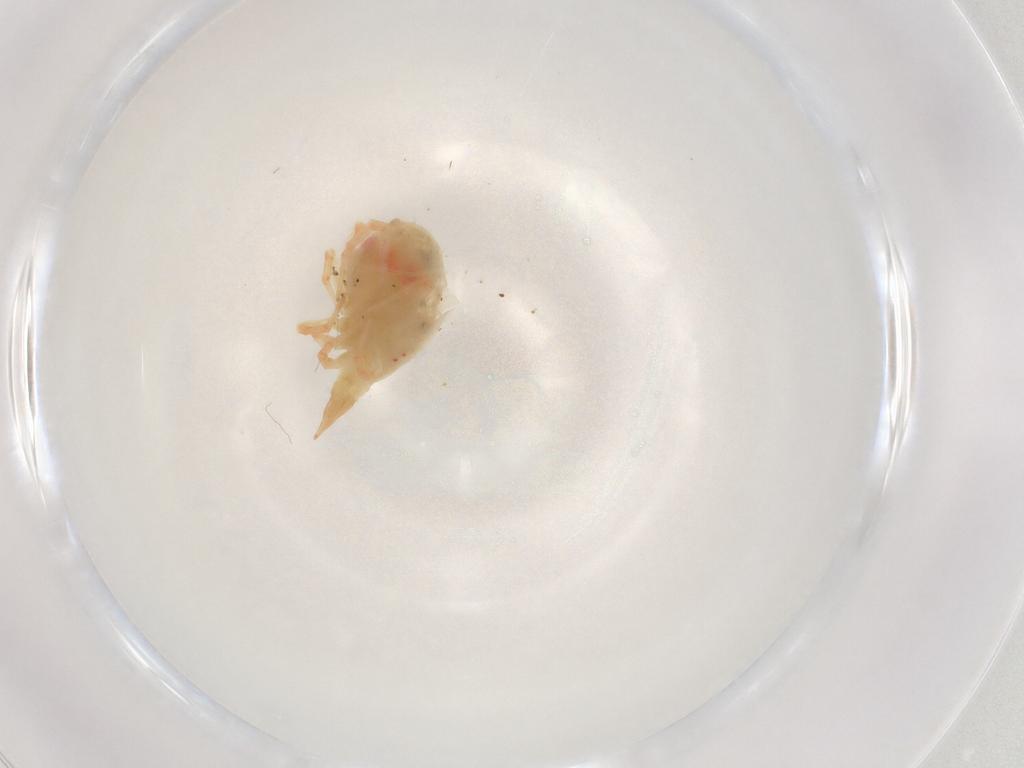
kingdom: Animalia
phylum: Arthropoda
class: Arachnida
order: Trombidiformes
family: Bdellidae
